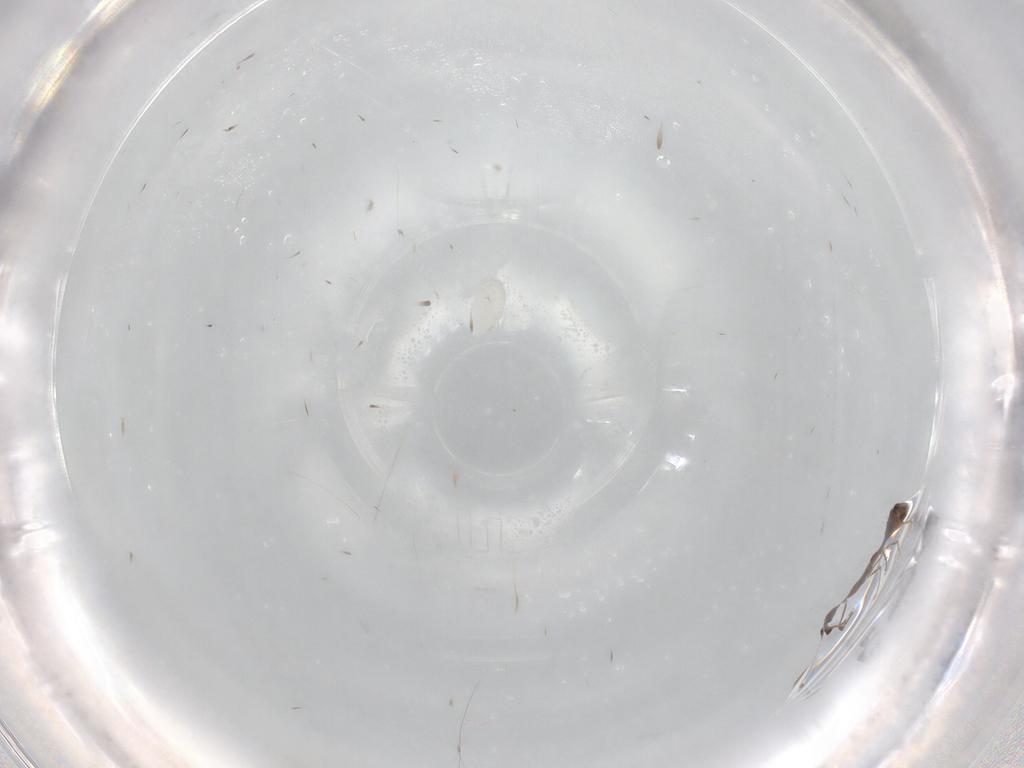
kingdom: Animalia
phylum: Arthropoda
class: Insecta
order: Hymenoptera
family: Formicidae
